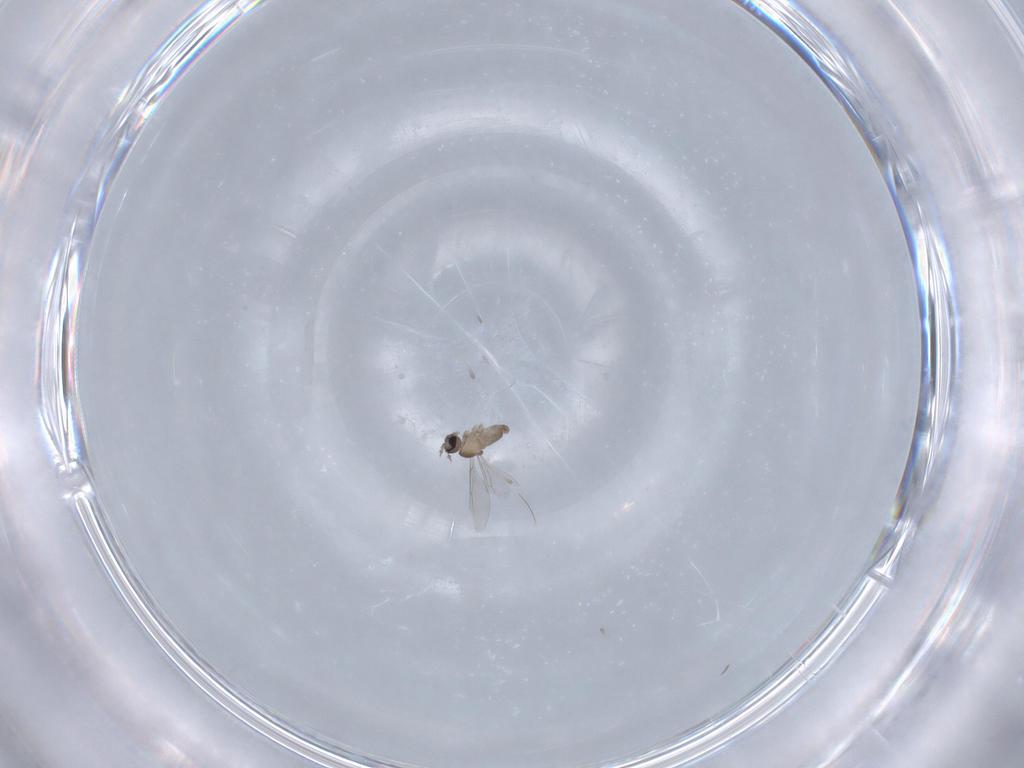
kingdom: Animalia
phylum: Arthropoda
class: Insecta
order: Diptera
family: Cecidomyiidae
